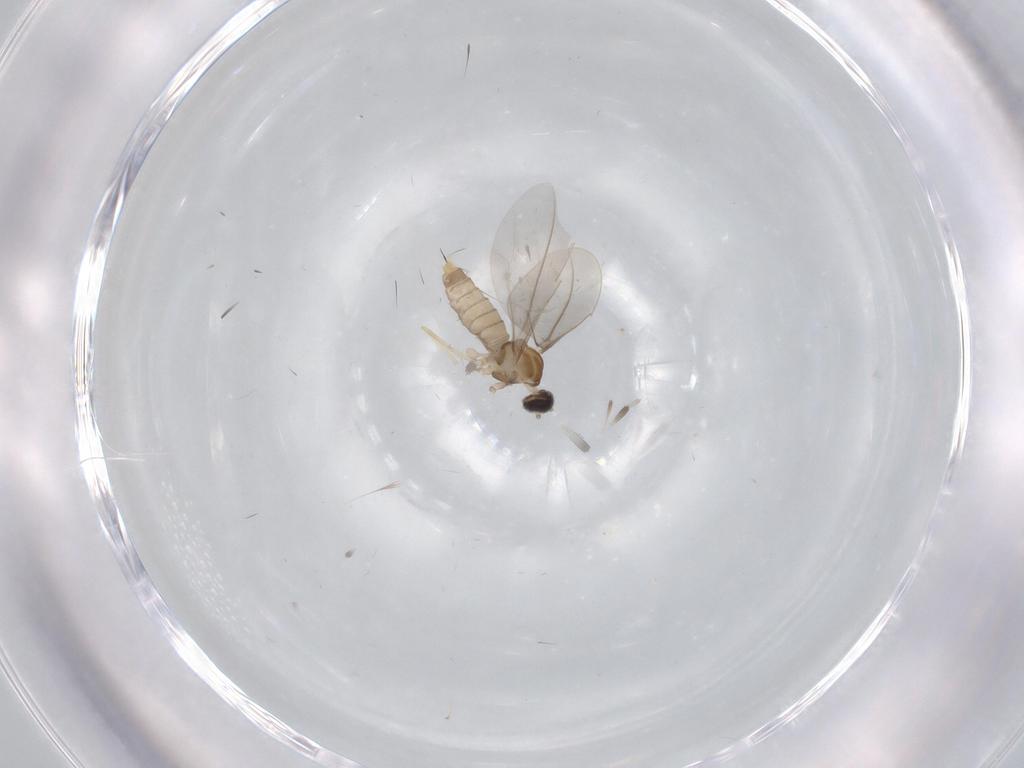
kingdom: Animalia
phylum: Arthropoda
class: Insecta
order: Diptera
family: Cecidomyiidae
